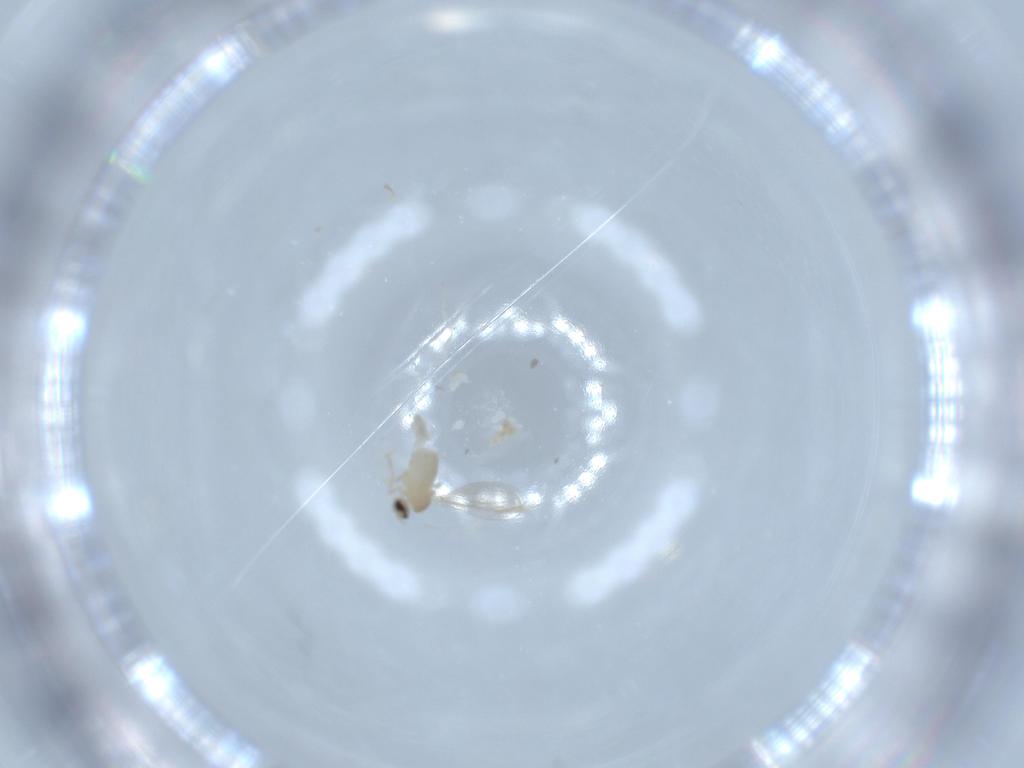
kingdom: Animalia
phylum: Arthropoda
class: Insecta
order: Diptera
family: Cecidomyiidae
